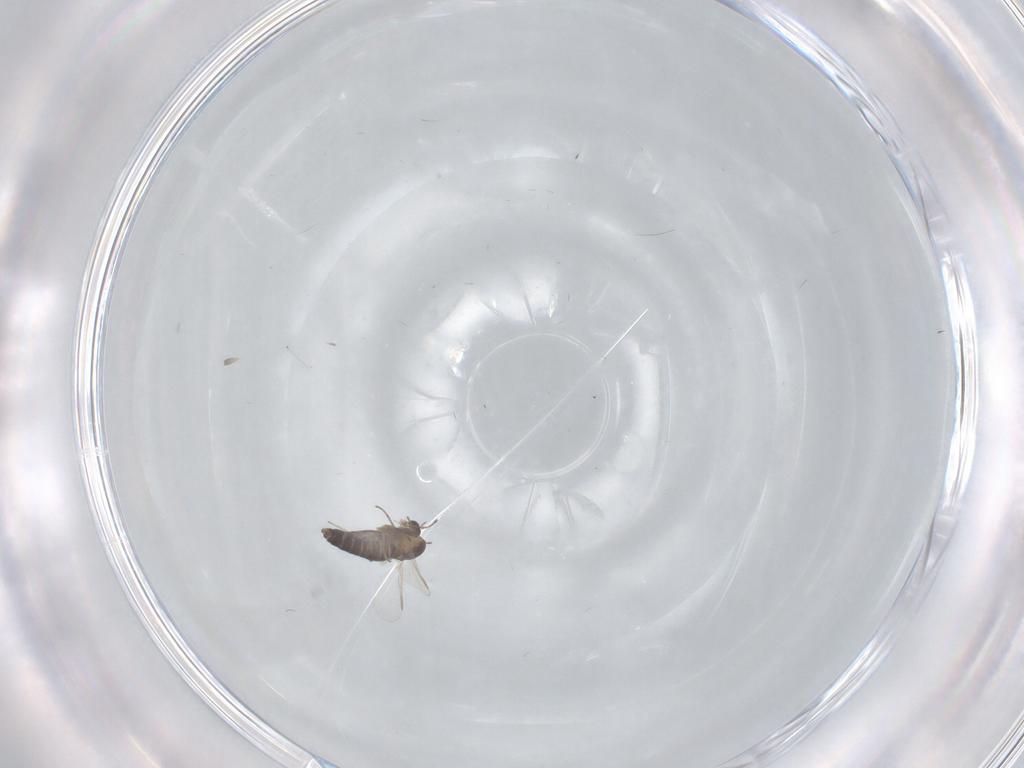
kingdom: Animalia
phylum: Arthropoda
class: Insecta
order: Diptera
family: Chironomidae
